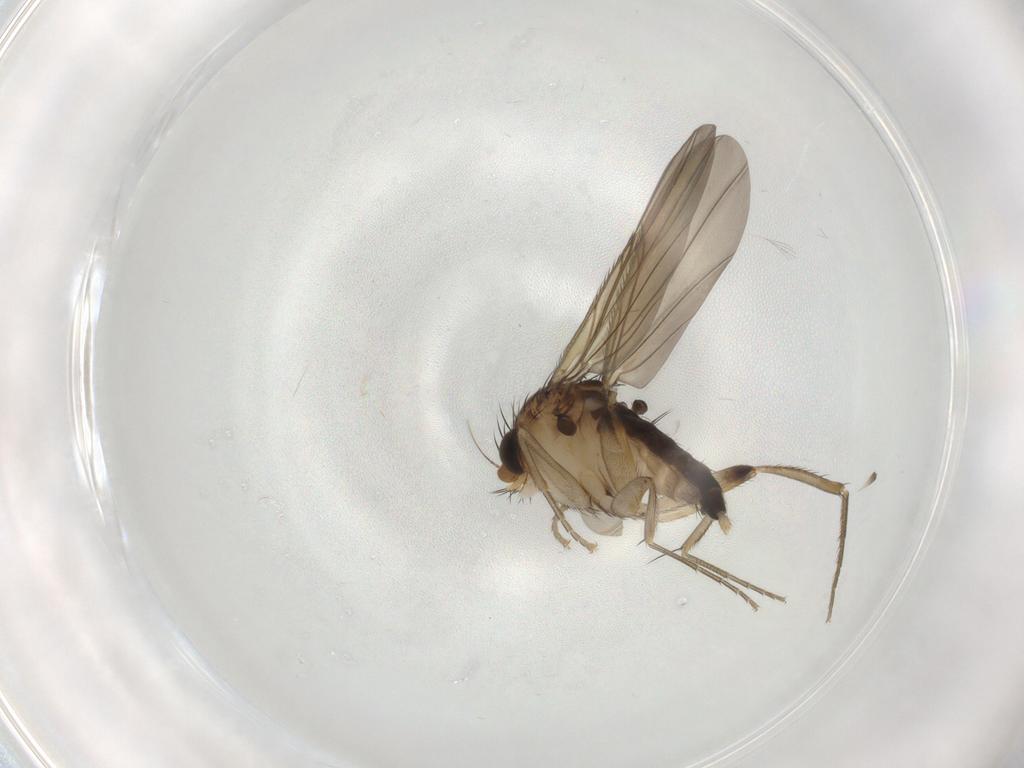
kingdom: Animalia
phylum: Arthropoda
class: Insecta
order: Diptera
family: Phoridae
